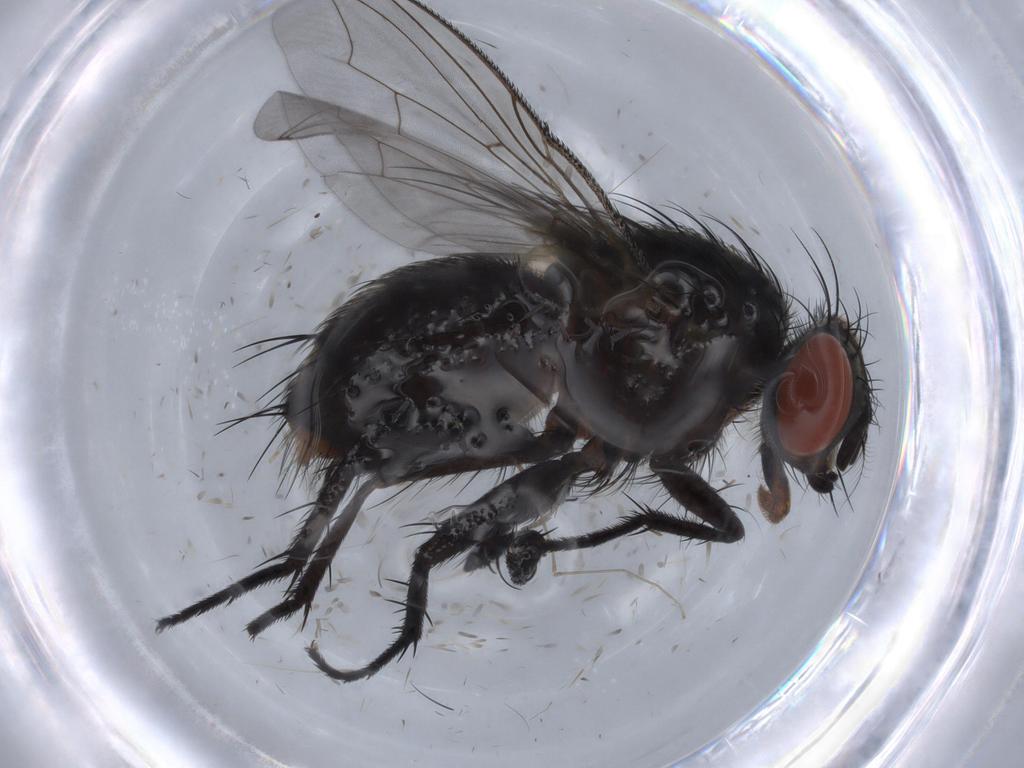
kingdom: Animalia
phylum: Arthropoda
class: Insecta
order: Diptera
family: Sarcophagidae
